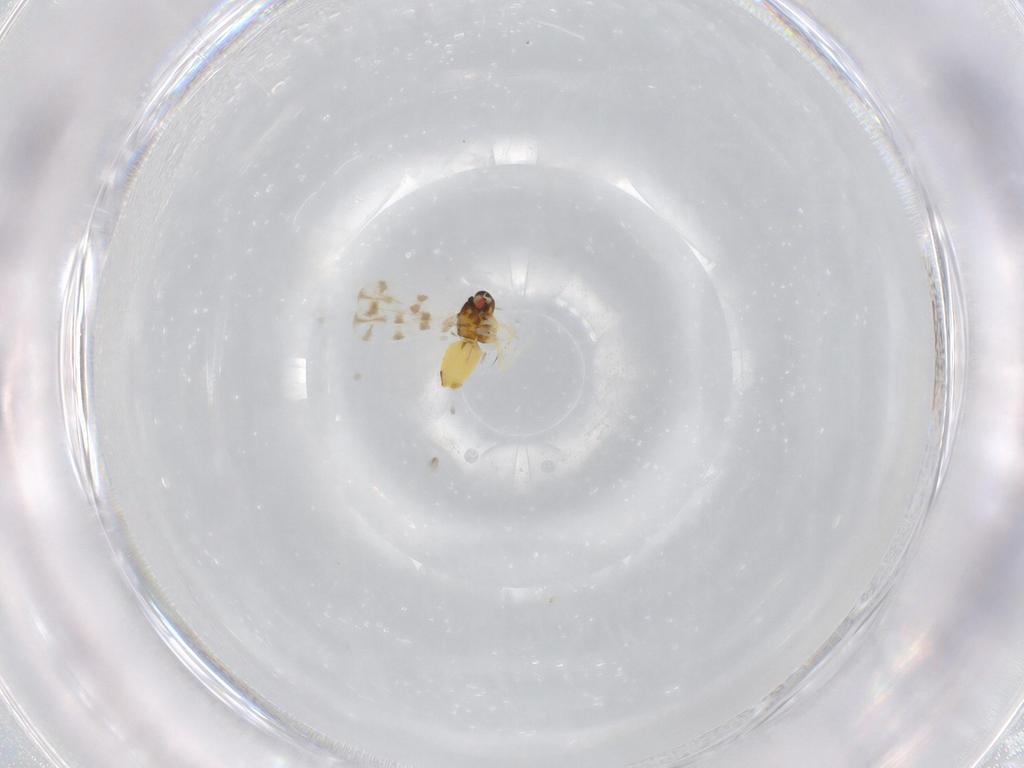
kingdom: Animalia
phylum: Arthropoda
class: Insecta
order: Hemiptera
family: Aleyrodidae
